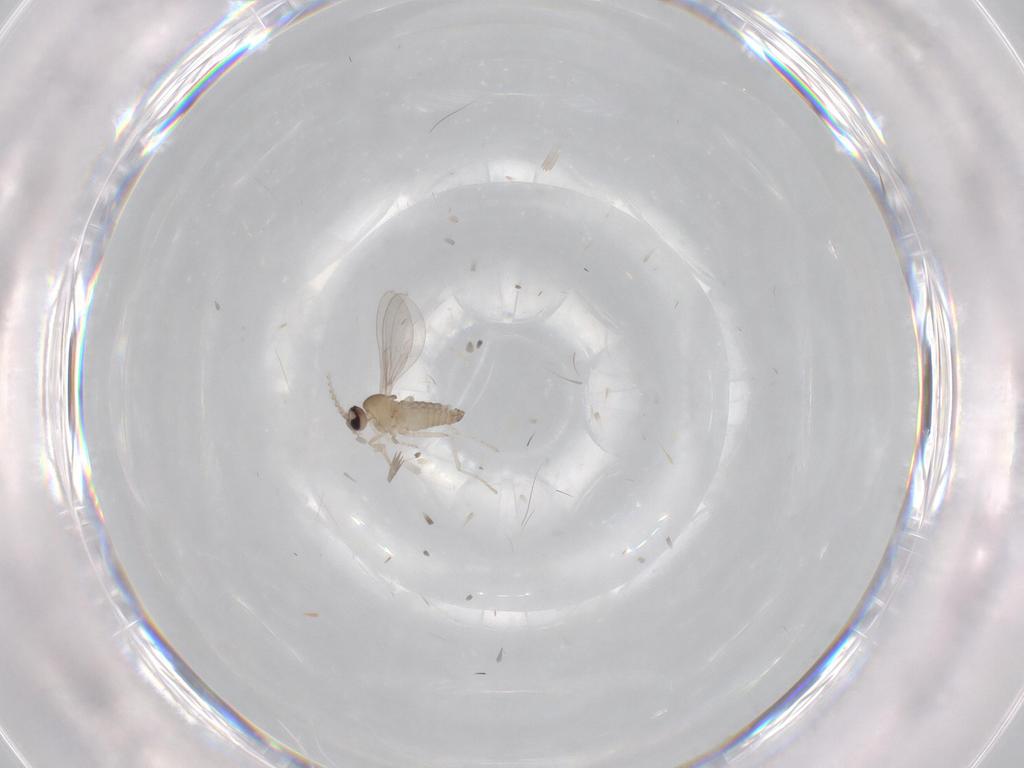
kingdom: Animalia
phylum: Arthropoda
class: Insecta
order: Diptera
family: Cecidomyiidae
